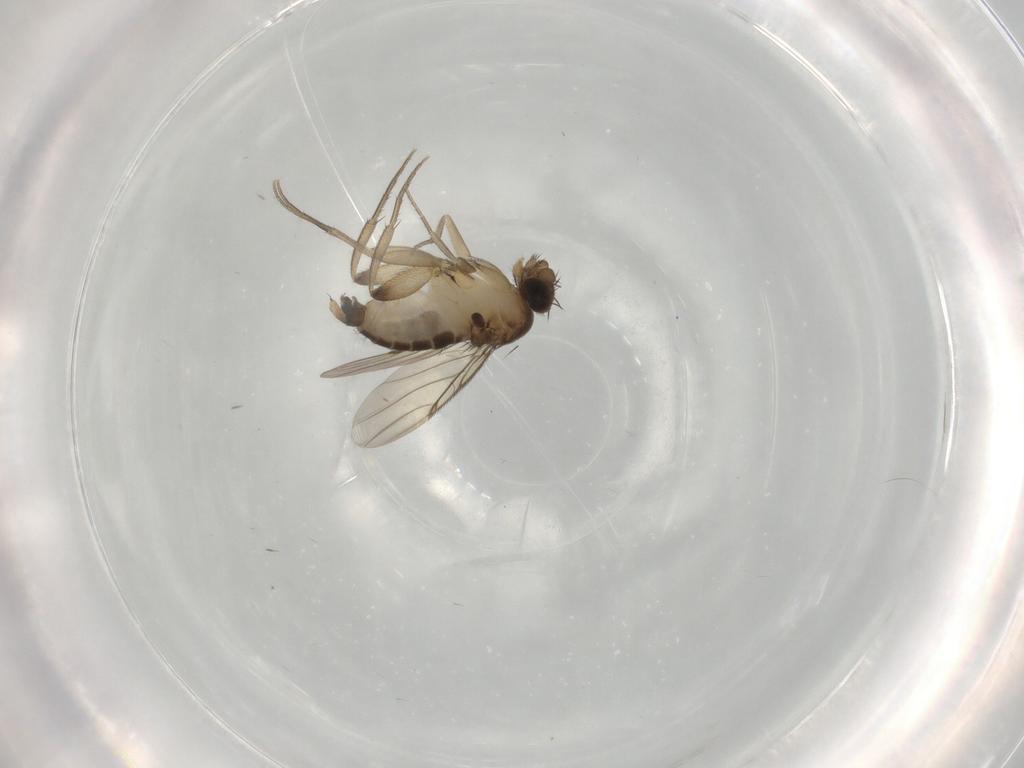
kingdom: Animalia
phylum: Arthropoda
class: Insecta
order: Diptera
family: Phoridae
